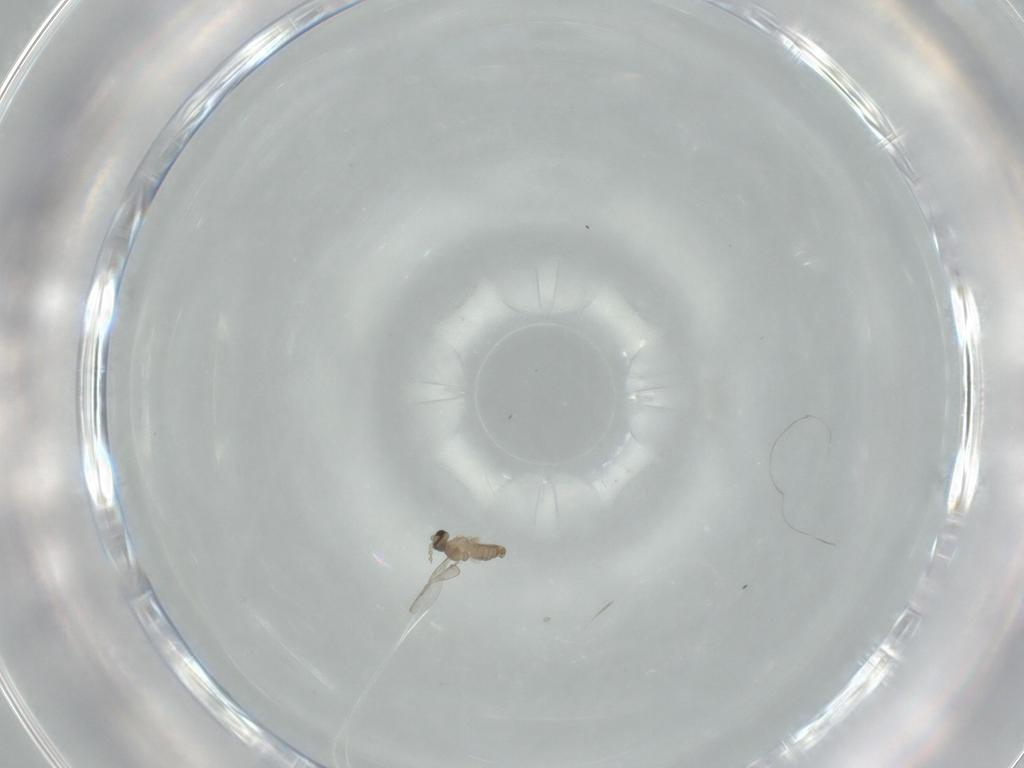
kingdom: Animalia
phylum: Arthropoda
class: Insecta
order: Diptera
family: Cecidomyiidae
